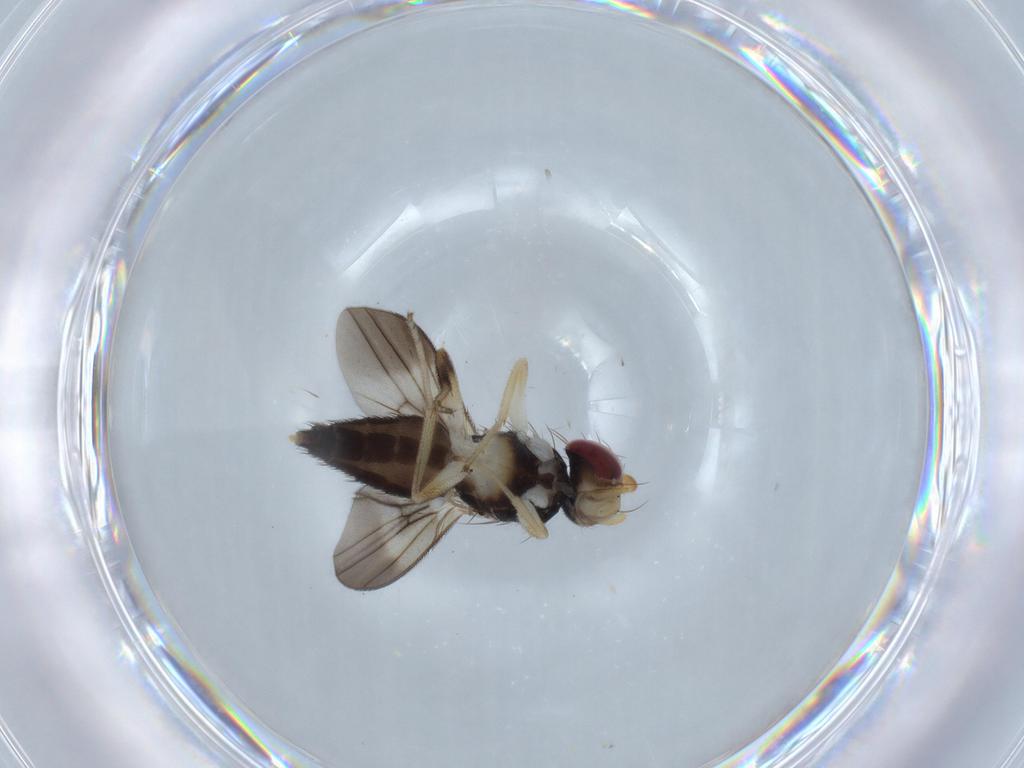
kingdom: Animalia
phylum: Arthropoda
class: Insecta
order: Diptera
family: Clusiidae
